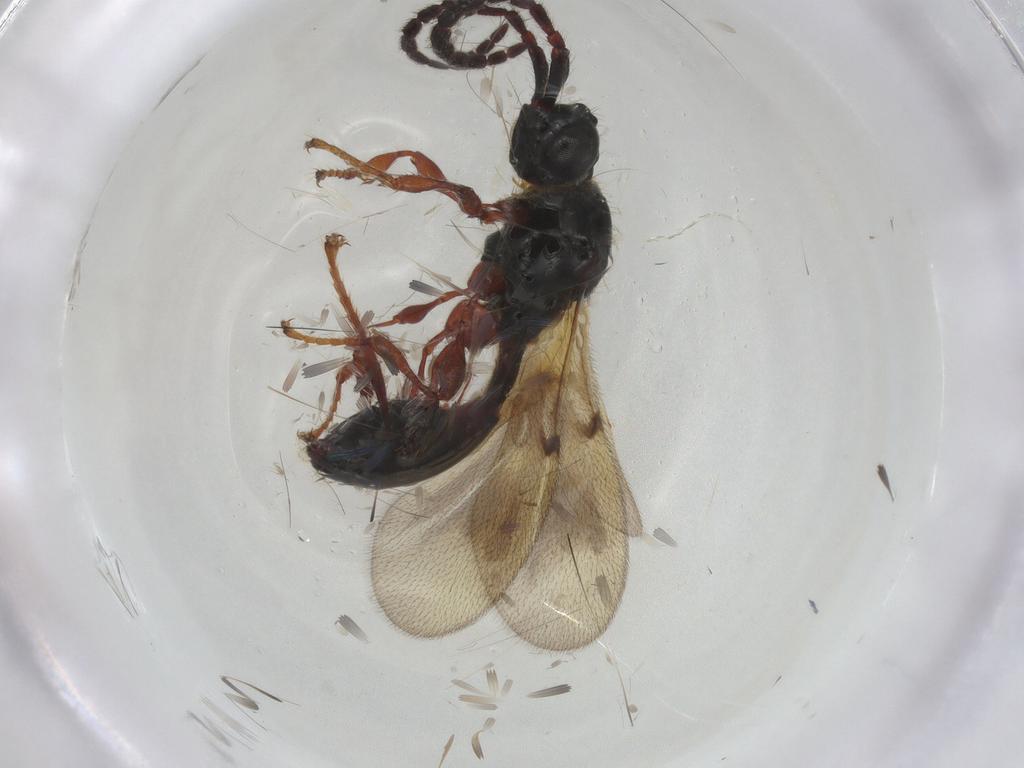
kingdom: Animalia
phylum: Arthropoda
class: Insecta
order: Hymenoptera
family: Diapriidae
